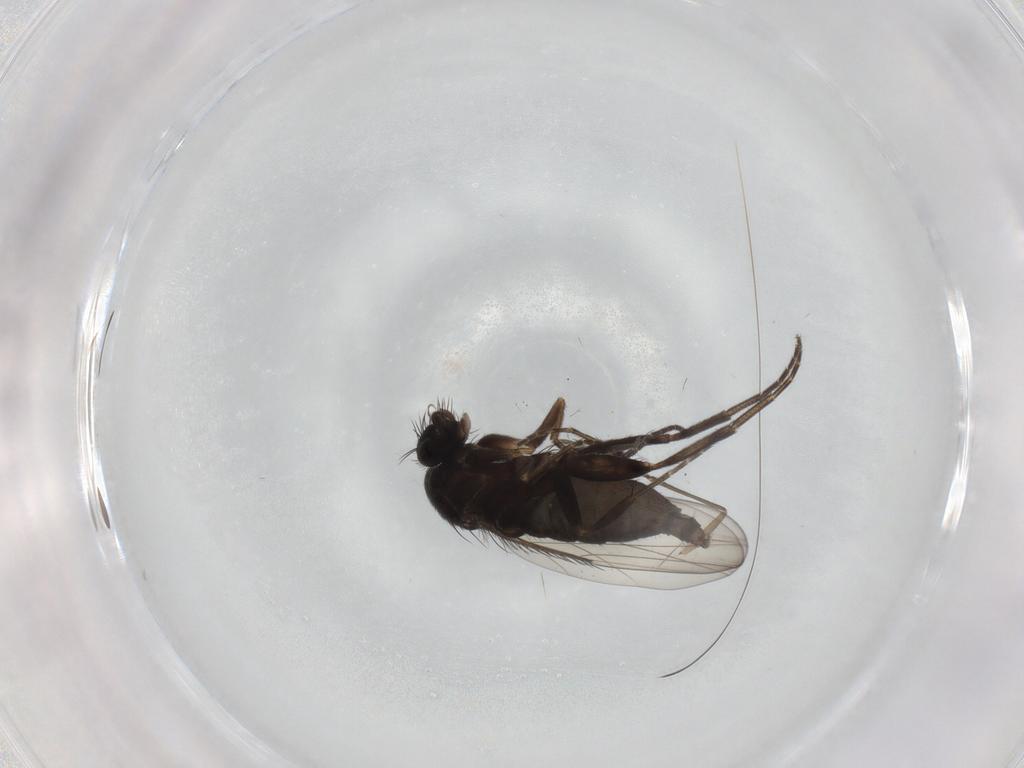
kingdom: Animalia
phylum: Arthropoda
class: Insecta
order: Diptera
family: Phoridae
